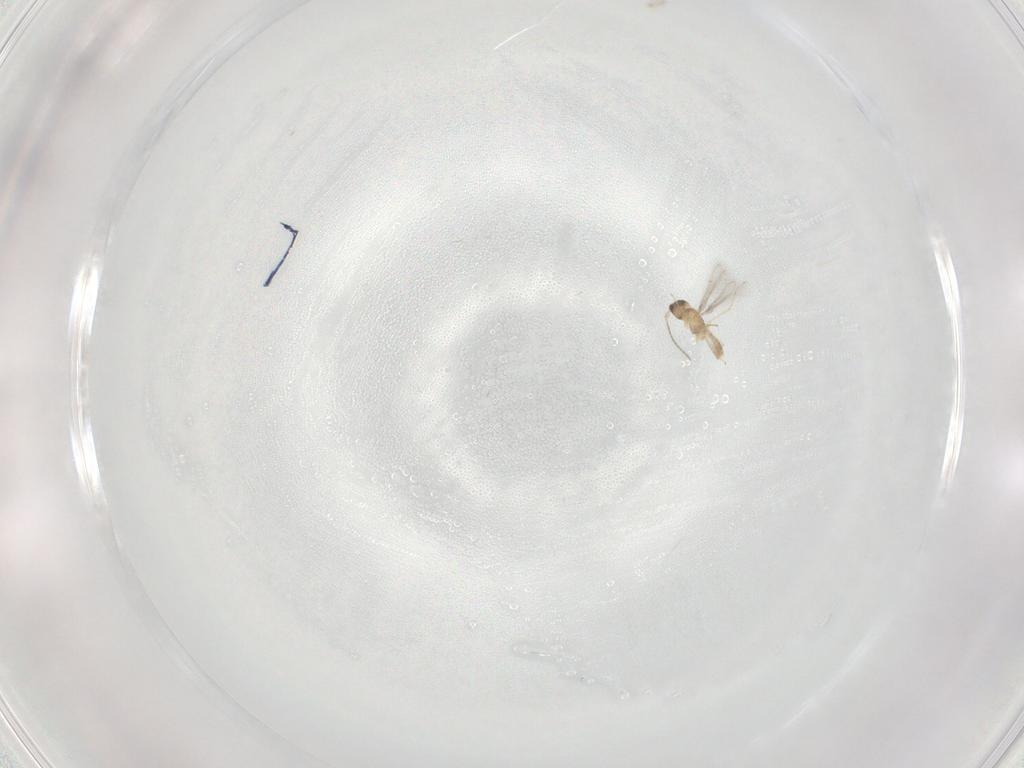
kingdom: Animalia
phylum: Arthropoda
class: Insecta
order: Hymenoptera
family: Mymaridae
